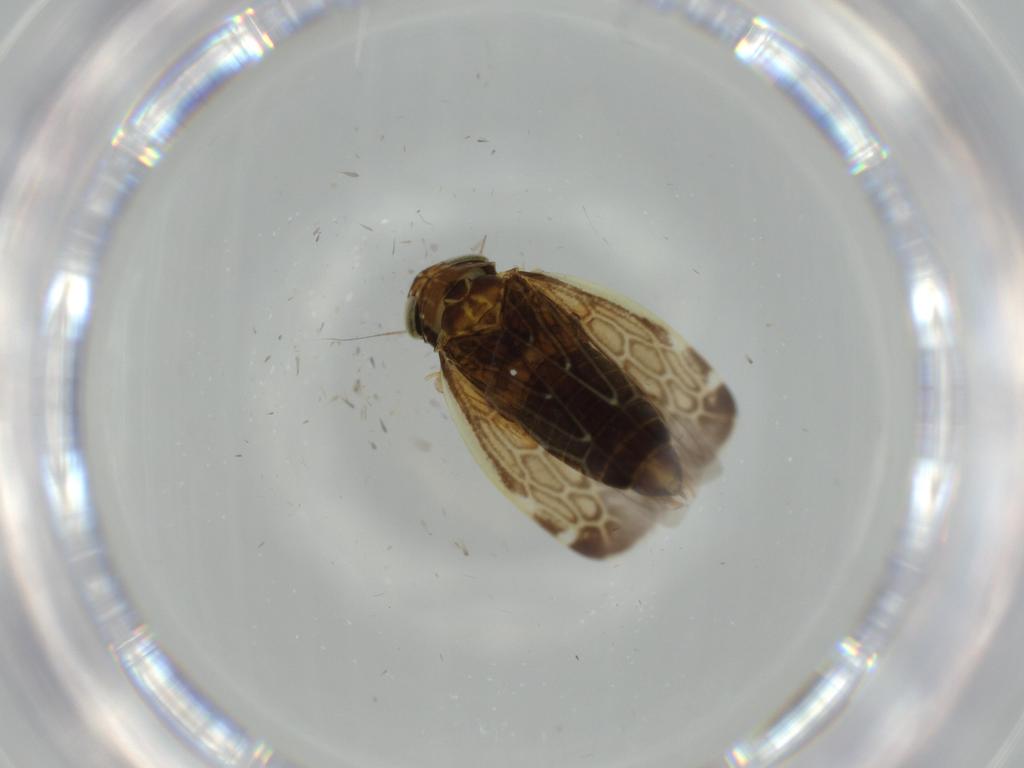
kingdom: Animalia
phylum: Arthropoda
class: Insecta
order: Hemiptera
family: Cicadellidae
